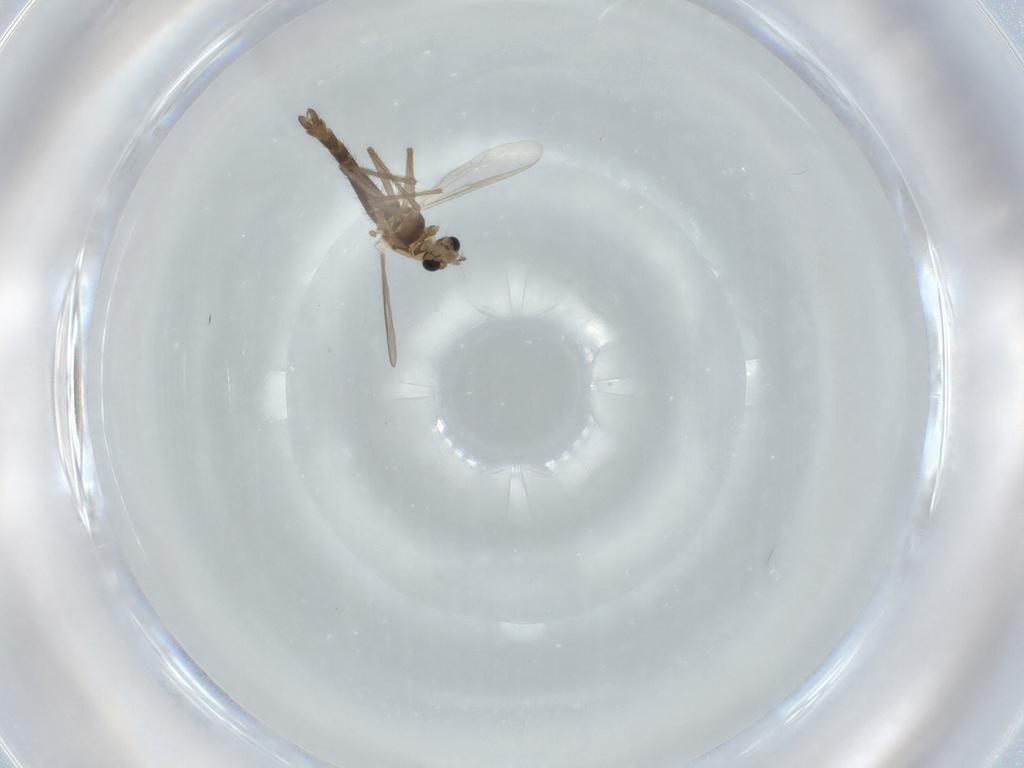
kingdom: Animalia
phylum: Arthropoda
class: Insecta
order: Diptera
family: Chironomidae
